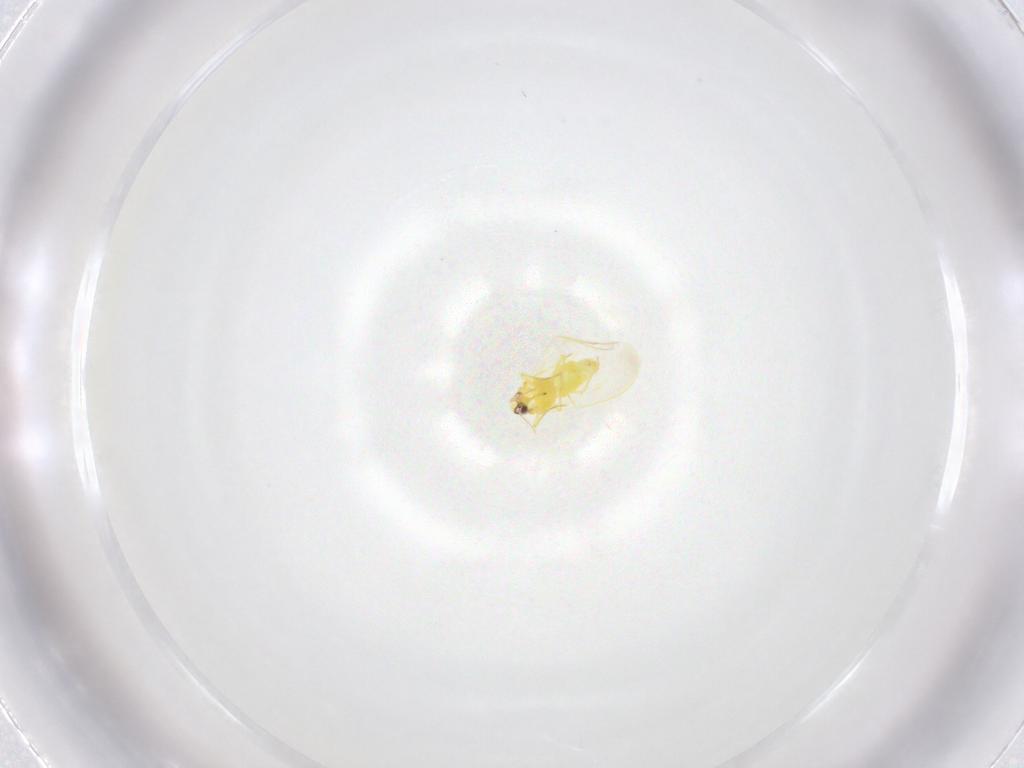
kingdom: Animalia
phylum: Arthropoda
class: Insecta
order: Hemiptera
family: Aleyrodidae
